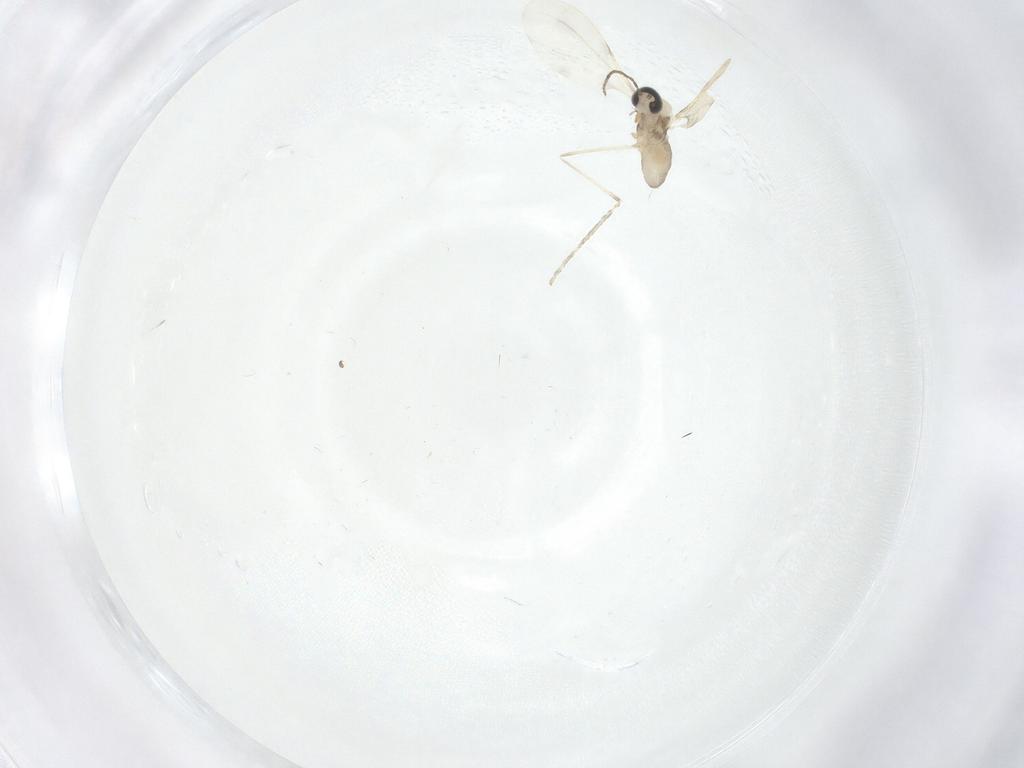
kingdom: Animalia
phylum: Arthropoda
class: Insecta
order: Diptera
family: Cecidomyiidae
